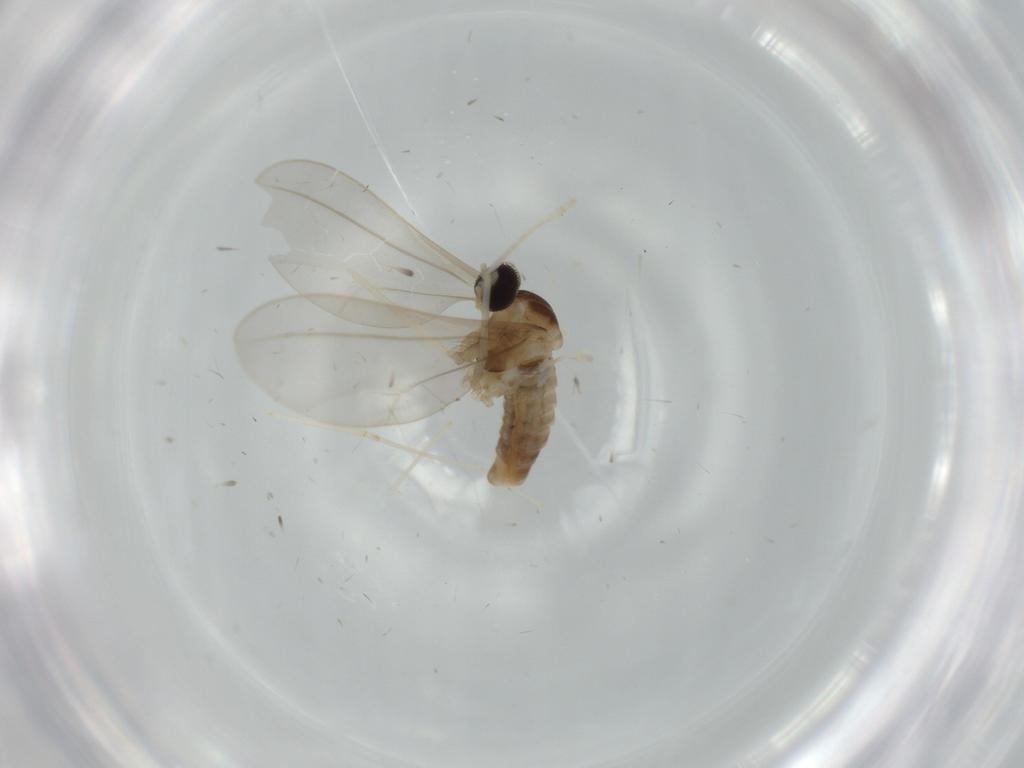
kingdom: Animalia
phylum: Arthropoda
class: Insecta
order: Diptera
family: Cecidomyiidae
